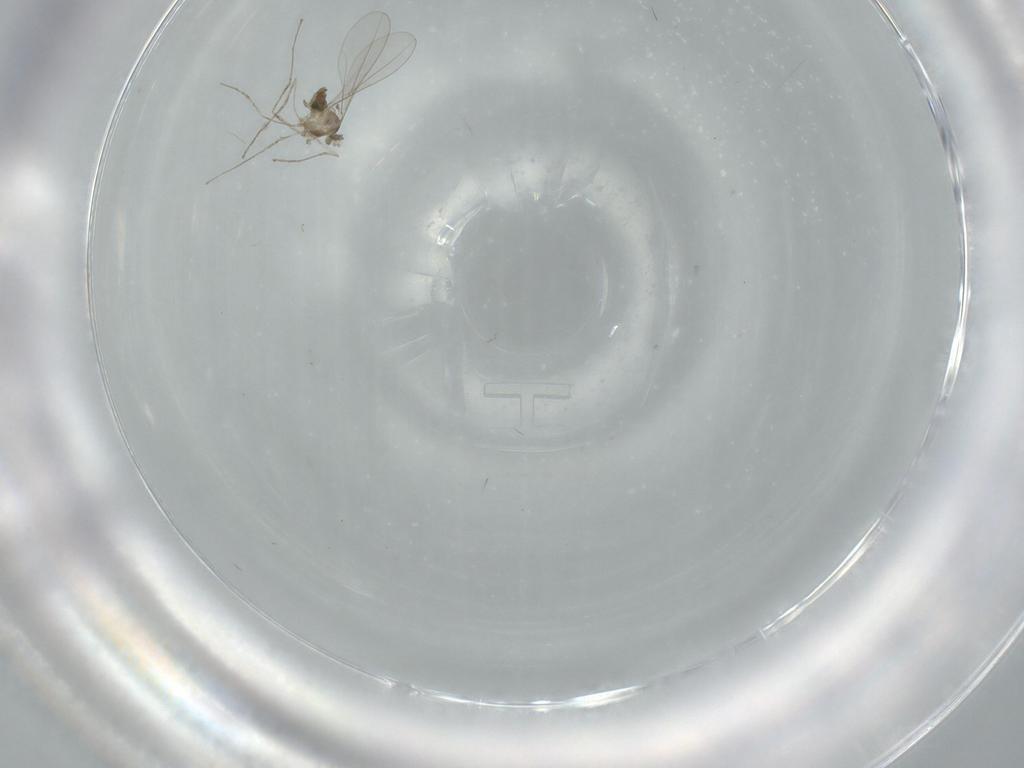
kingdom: Animalia
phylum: Arthropoda
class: Insecta
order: Diptera
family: Cecidomyiidae
